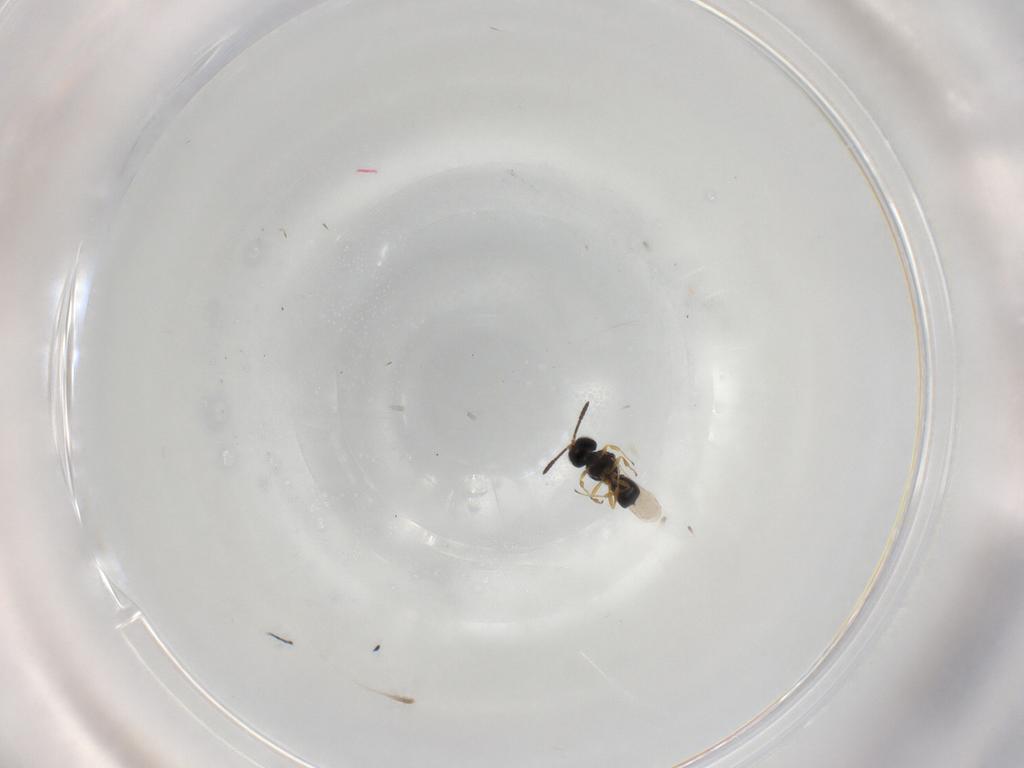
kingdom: Animalia
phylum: Arthropoda
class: Insecta
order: Hymenoptera
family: Scelionidae
